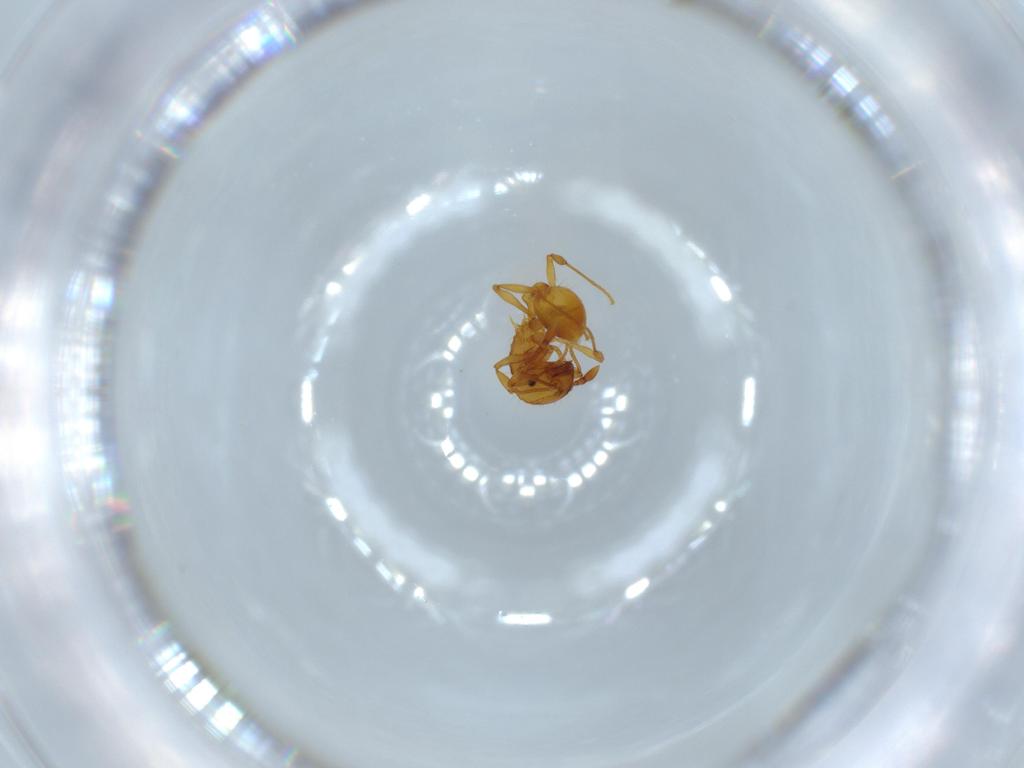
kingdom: Animalia
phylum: Arthropoda
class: Insecta
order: Hymenoptera
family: Formicidae
